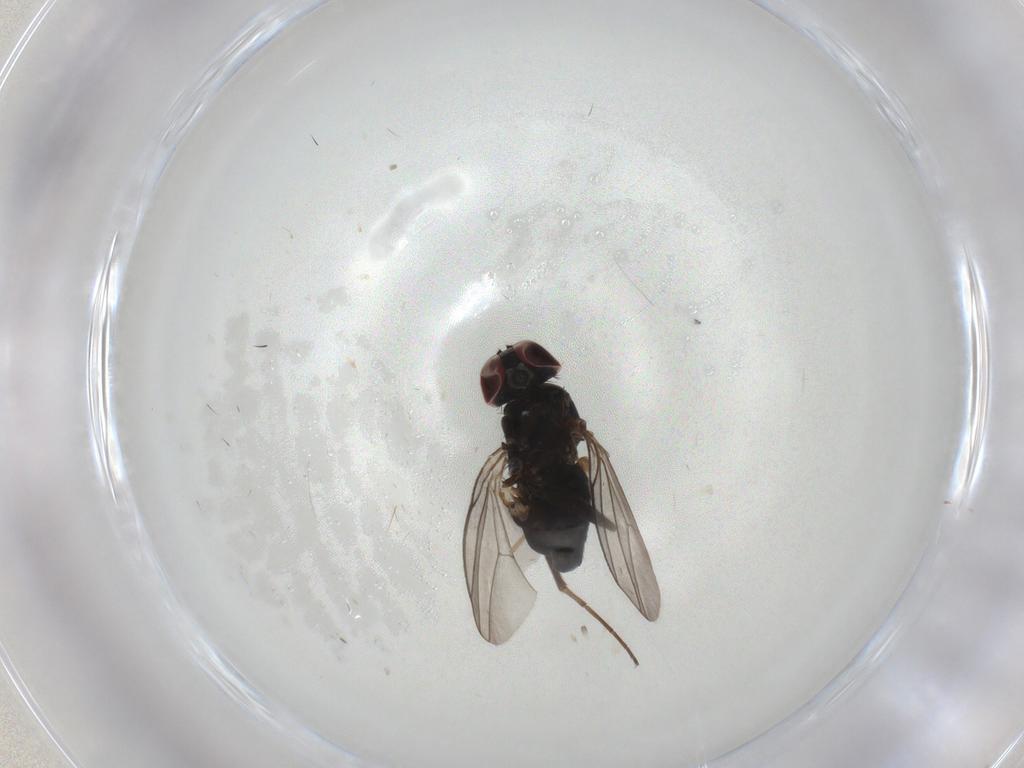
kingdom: Animalia
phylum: Arthropoda
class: Insecta
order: Diptera
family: Dolichopodidae
